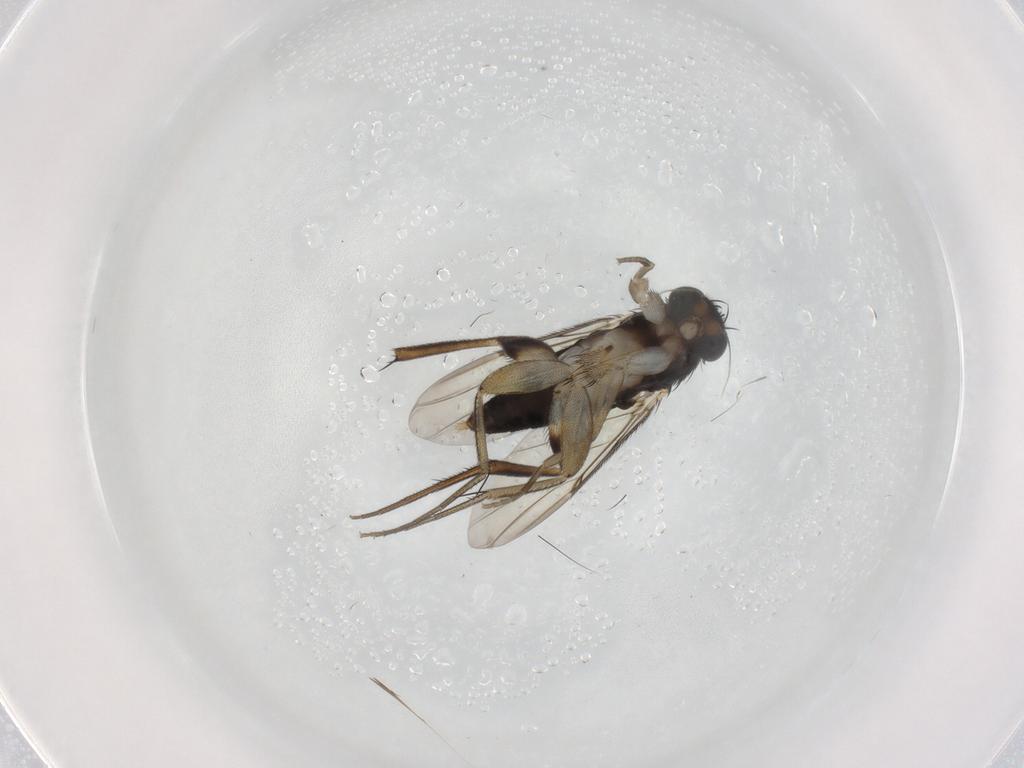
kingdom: Animalia
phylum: Arthropoda
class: Insecta
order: Diptera
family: Phoridae
